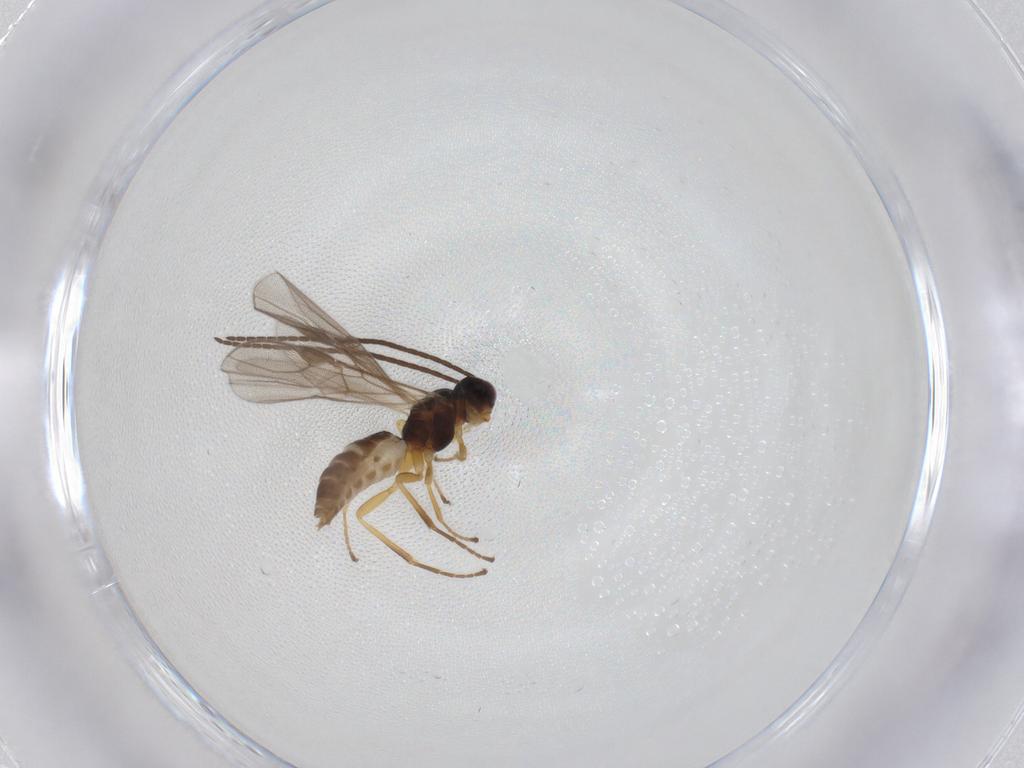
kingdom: Animalia
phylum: Arthropoda
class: Insecta
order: Hymenoptera
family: Braconidae
